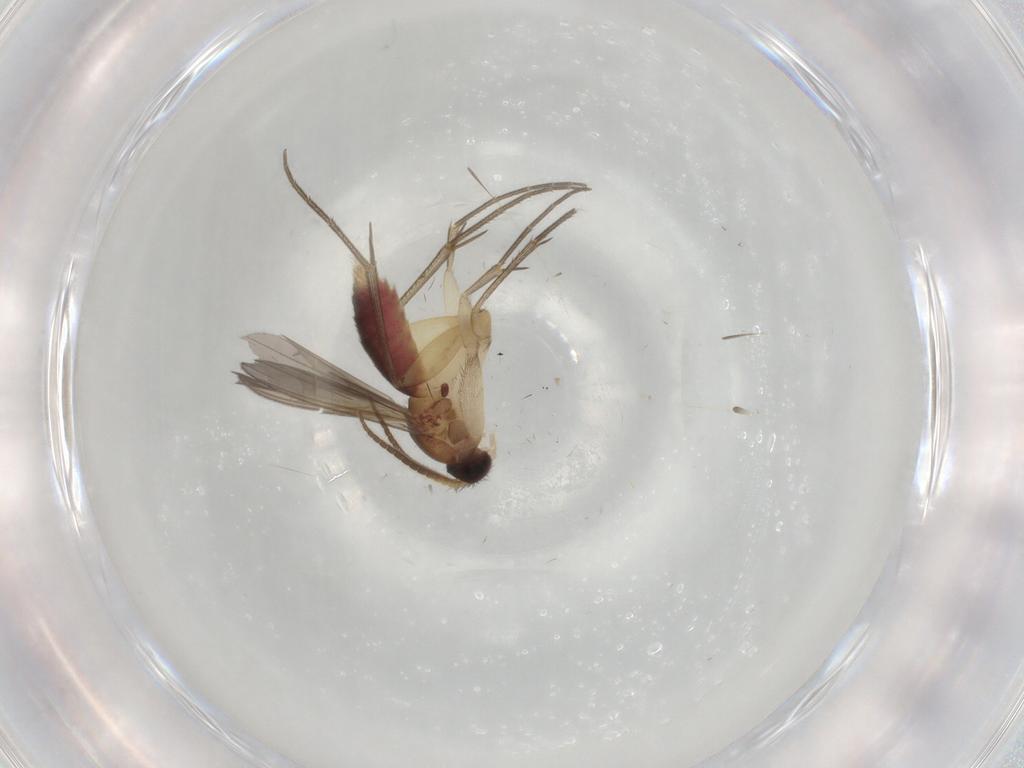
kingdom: Animalia
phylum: Arthropoda
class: Insecta
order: Diptera
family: Mycetophilidae
